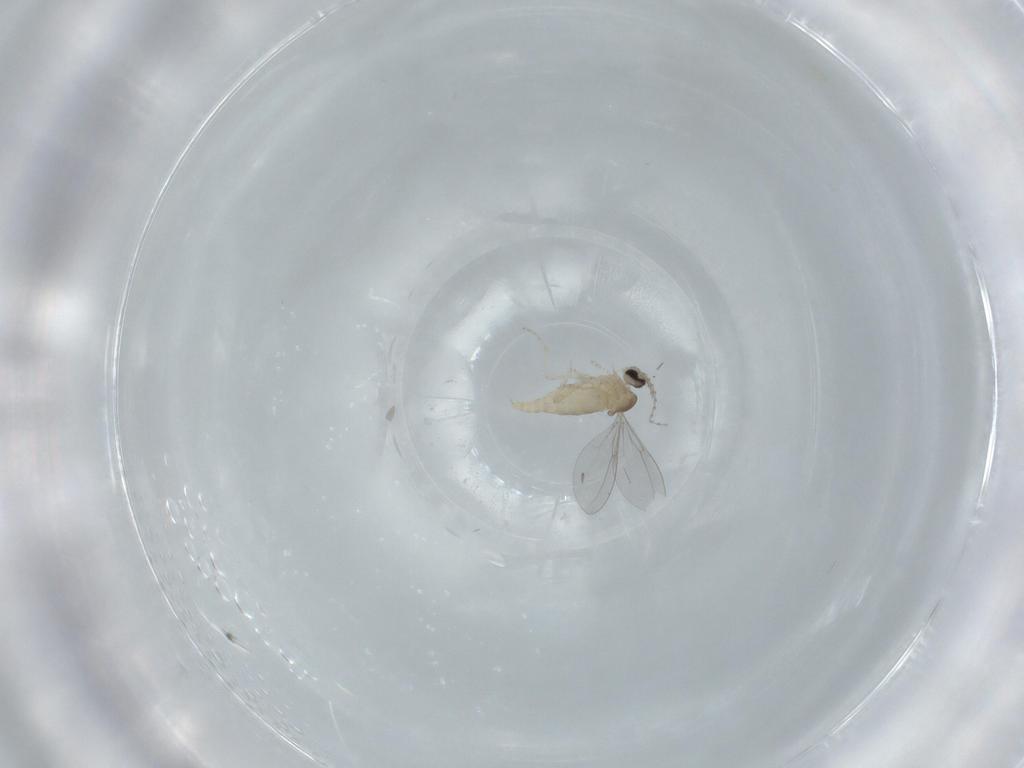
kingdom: Animalia
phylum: Arthropoda
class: Insecta
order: Diptera
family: Cecidomyiidae
